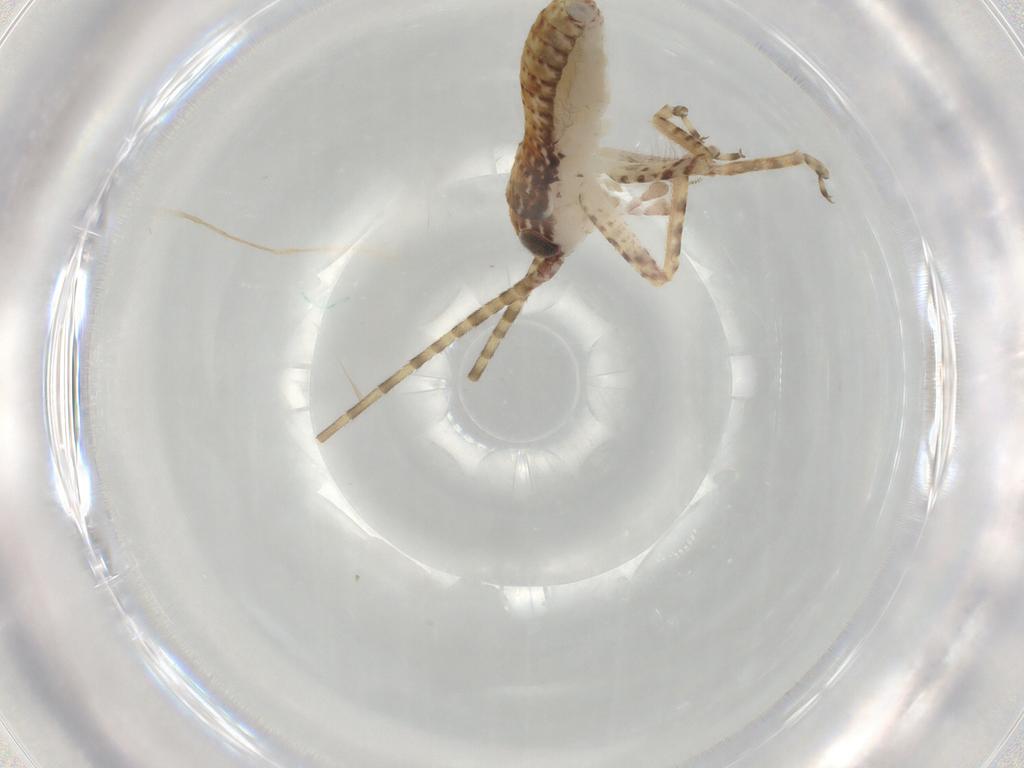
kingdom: Animalia
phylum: Arthropoda
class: Insecta
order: Orthoptera
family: Gryllidae
